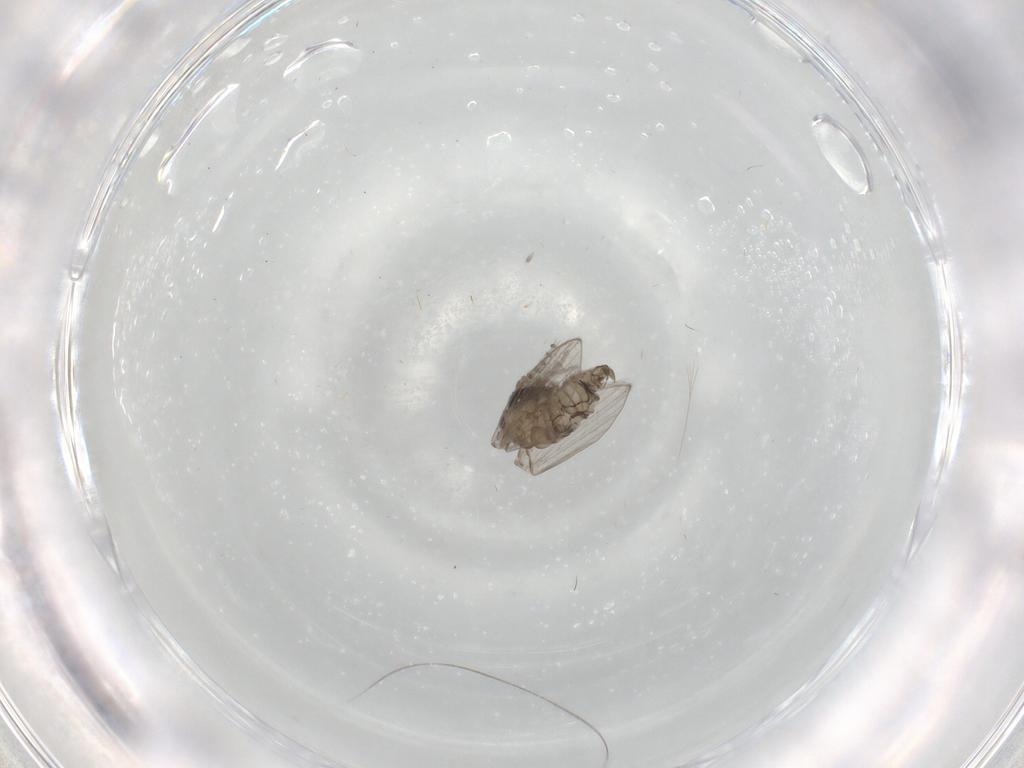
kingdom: Animalia
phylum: Arthropoda
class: Insecta
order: Diptera
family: Psychodidae
